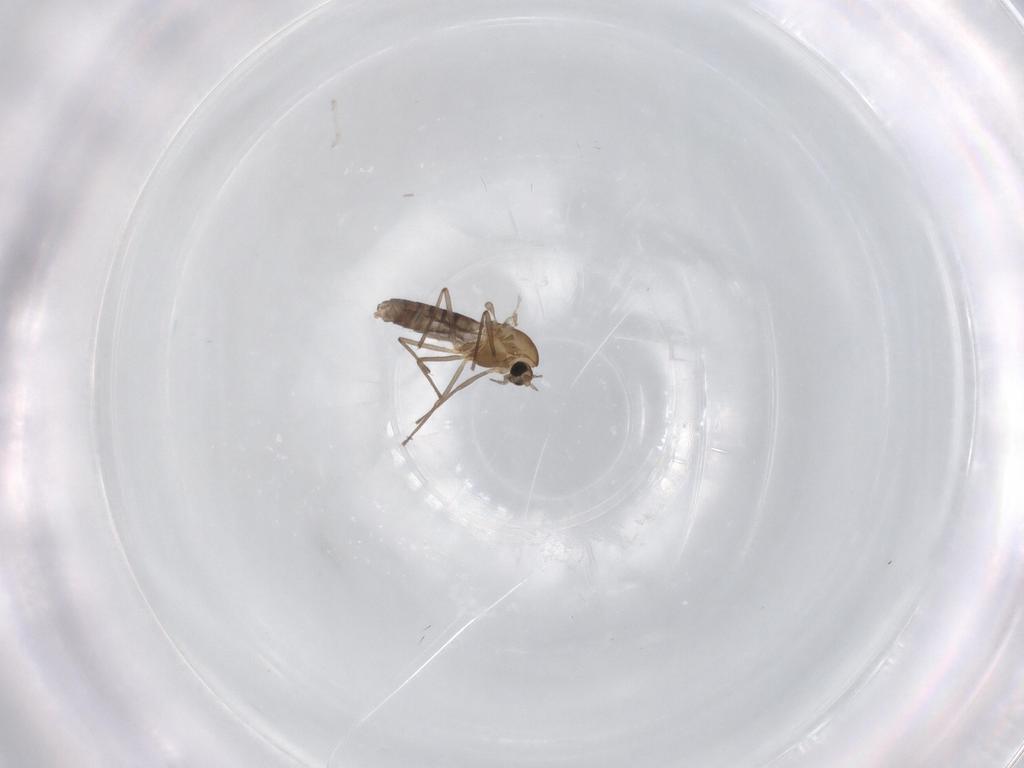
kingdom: Animalia
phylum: Arthropoda
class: Insecta
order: Diptera
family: Chironomidae
